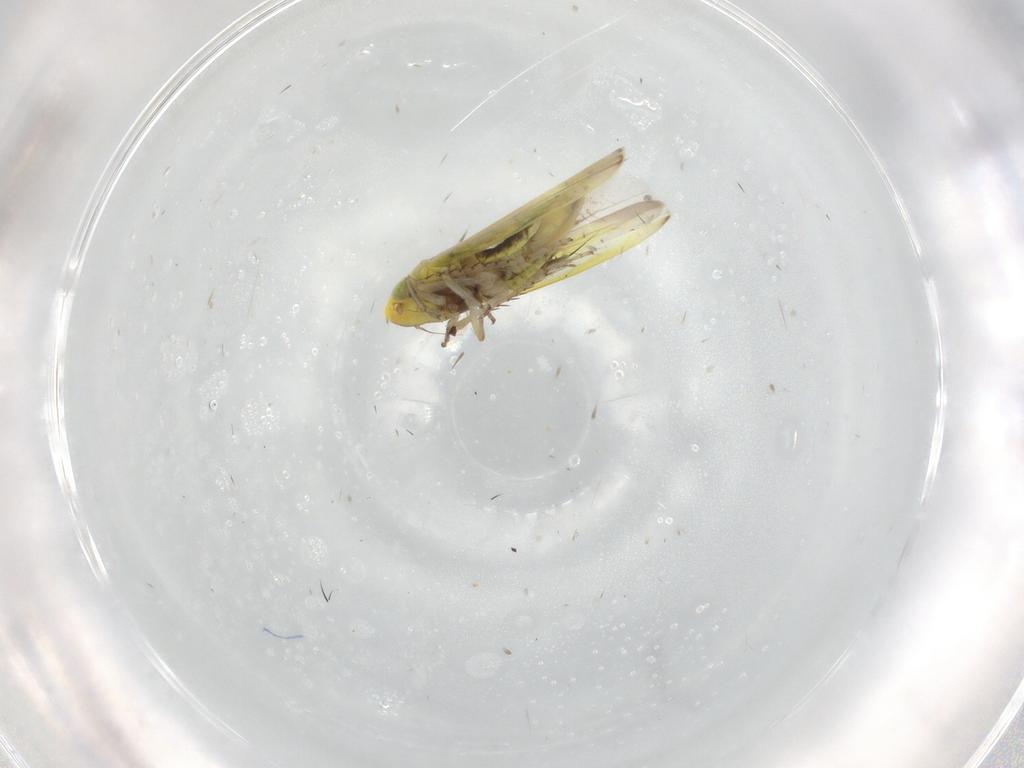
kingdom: Animalia
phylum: Arthropoda
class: Insecta
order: Hemiptera
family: Cicadellidae
